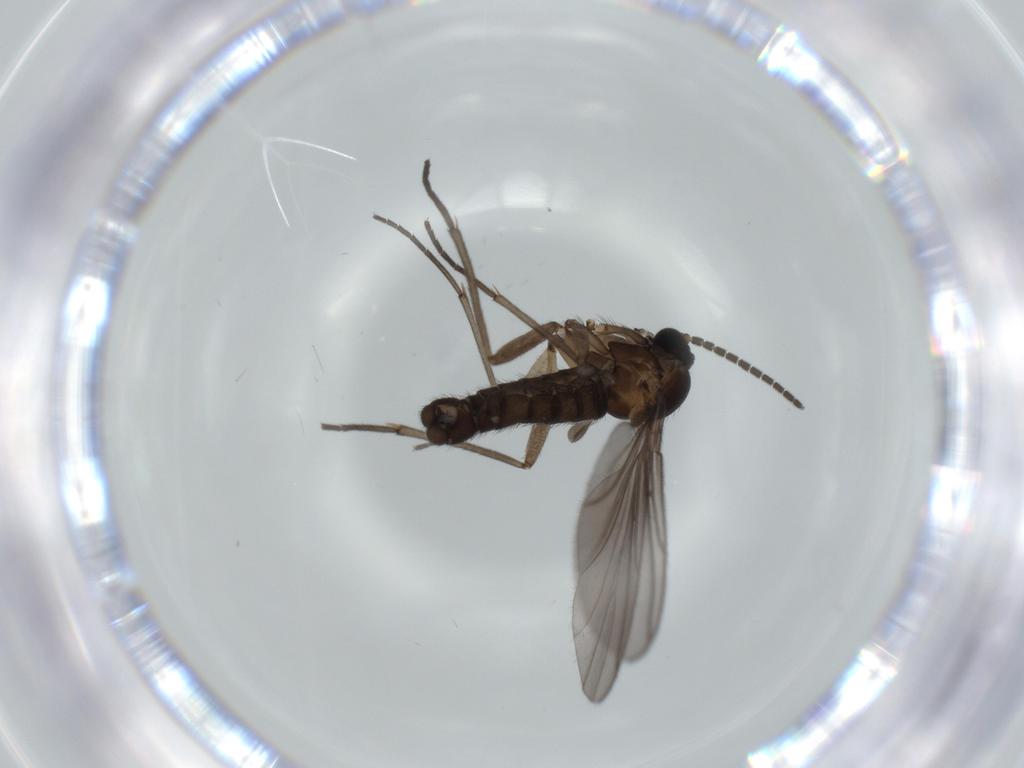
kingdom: Animalia
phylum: Arthropoda
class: Insecta
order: Diptera
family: Sciaridae
